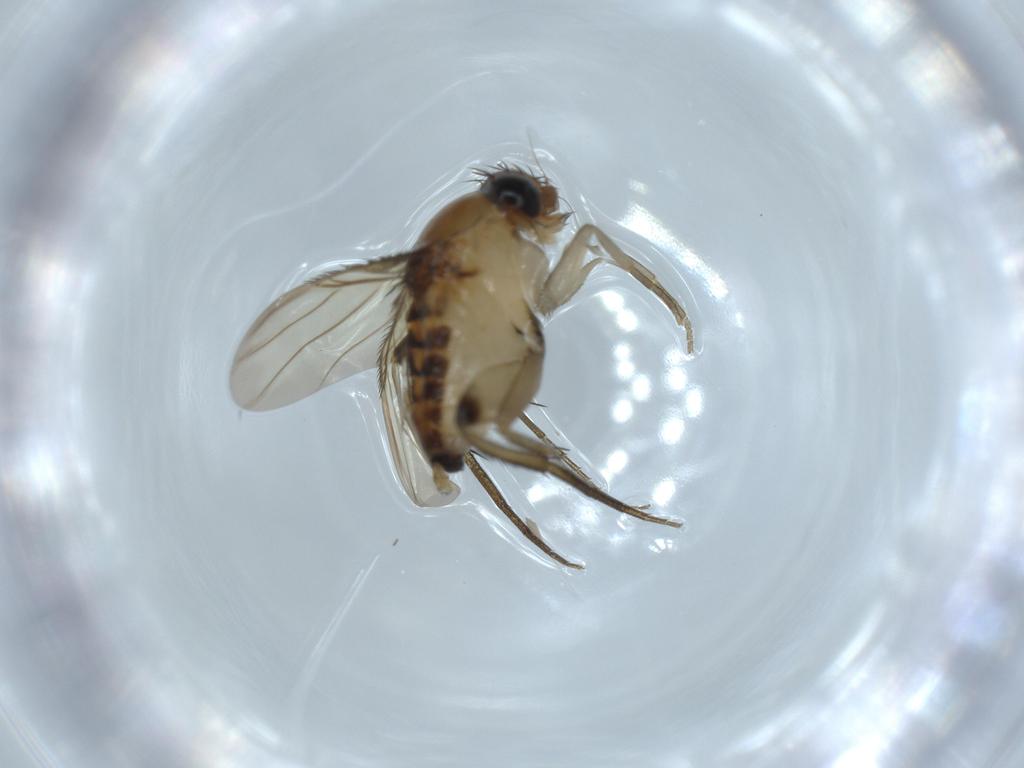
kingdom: Animalia
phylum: Arthropoda
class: Insecta
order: Diptera
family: Phoridae
